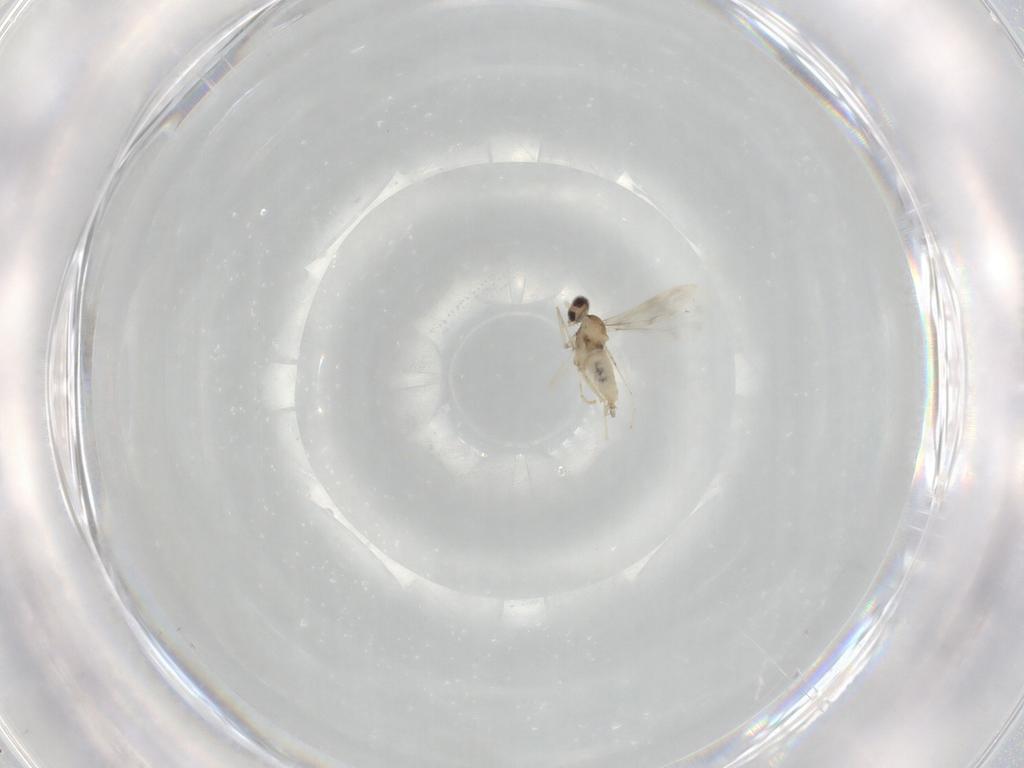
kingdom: Animalia
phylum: Arthropoda
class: Insecta
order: Diptera
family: Cecidomyiidae
